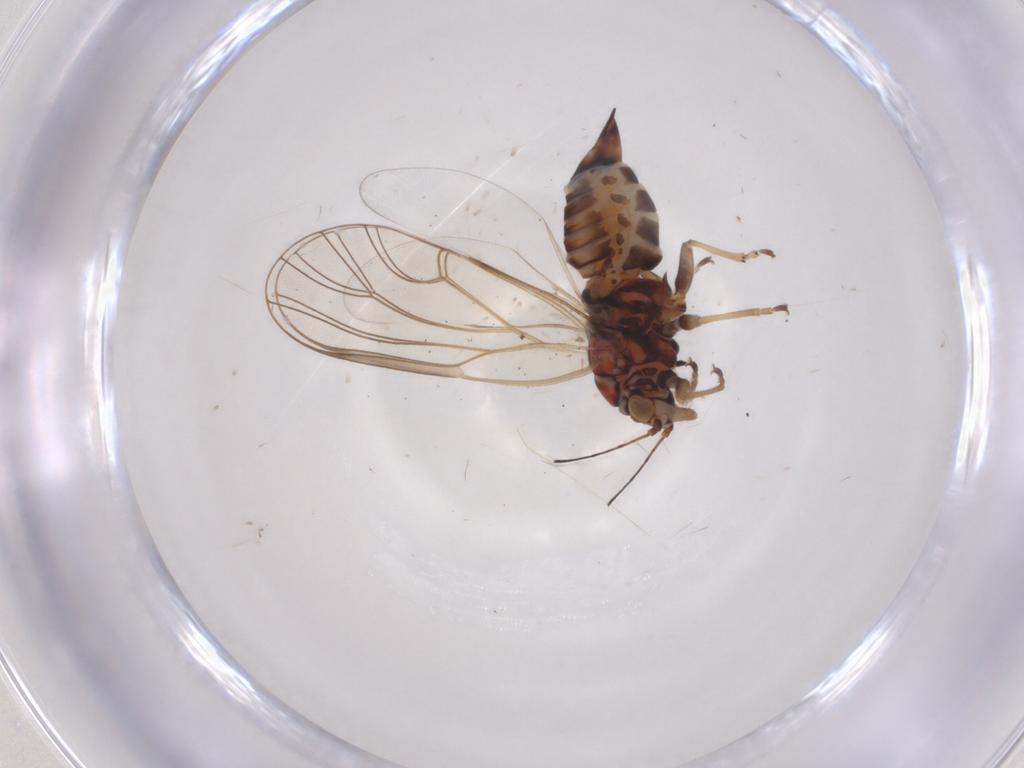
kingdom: Animalia
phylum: Arthropoda
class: Insecta
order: Hemiptera
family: Psyllidae
